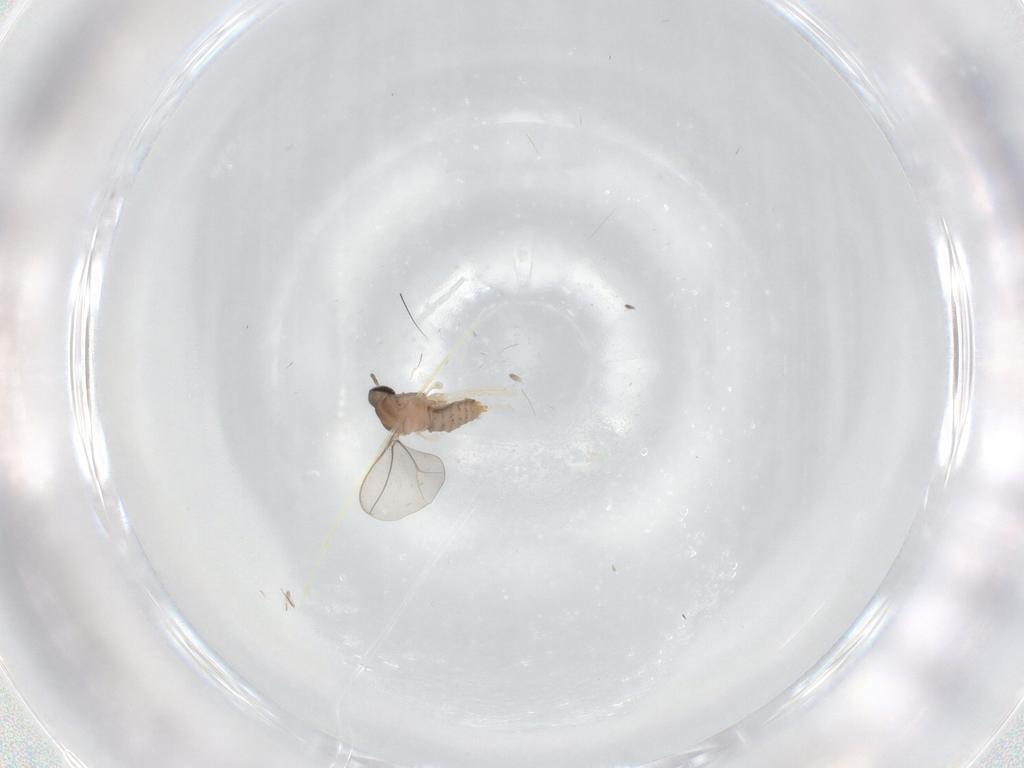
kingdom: Animalia
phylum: Arthropoda
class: Insecta
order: Diptera
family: Cecidomyiidae
